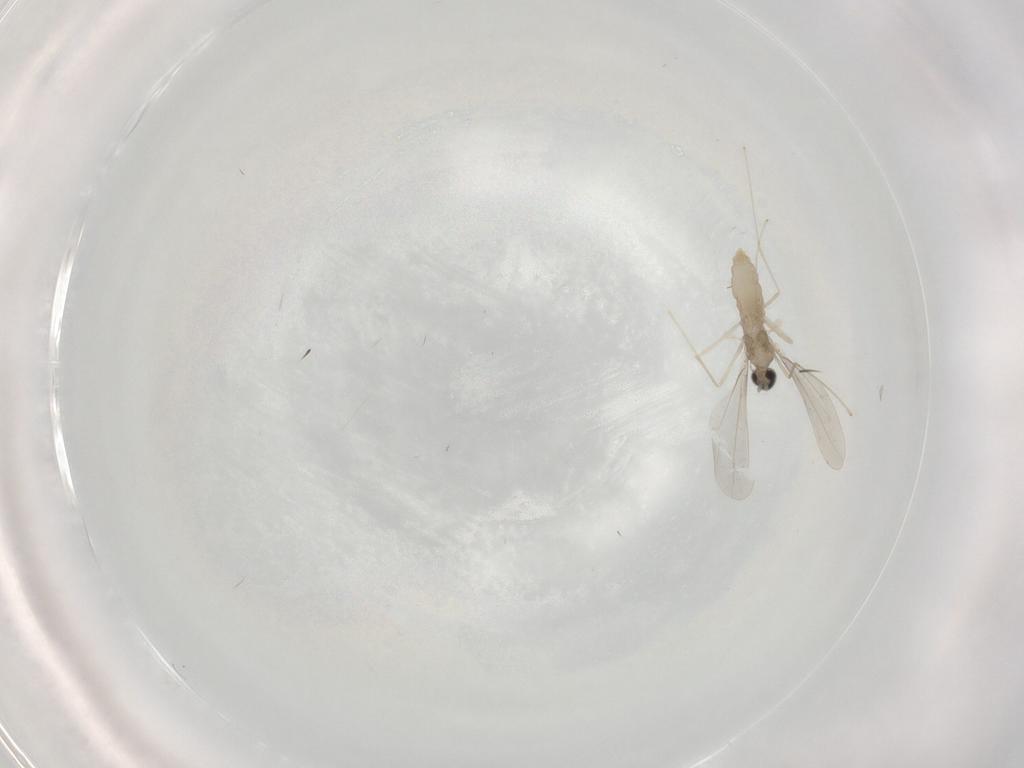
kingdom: Animalia
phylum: Arthropoda
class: Insecta
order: Diptera
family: Cecidomyiidae
